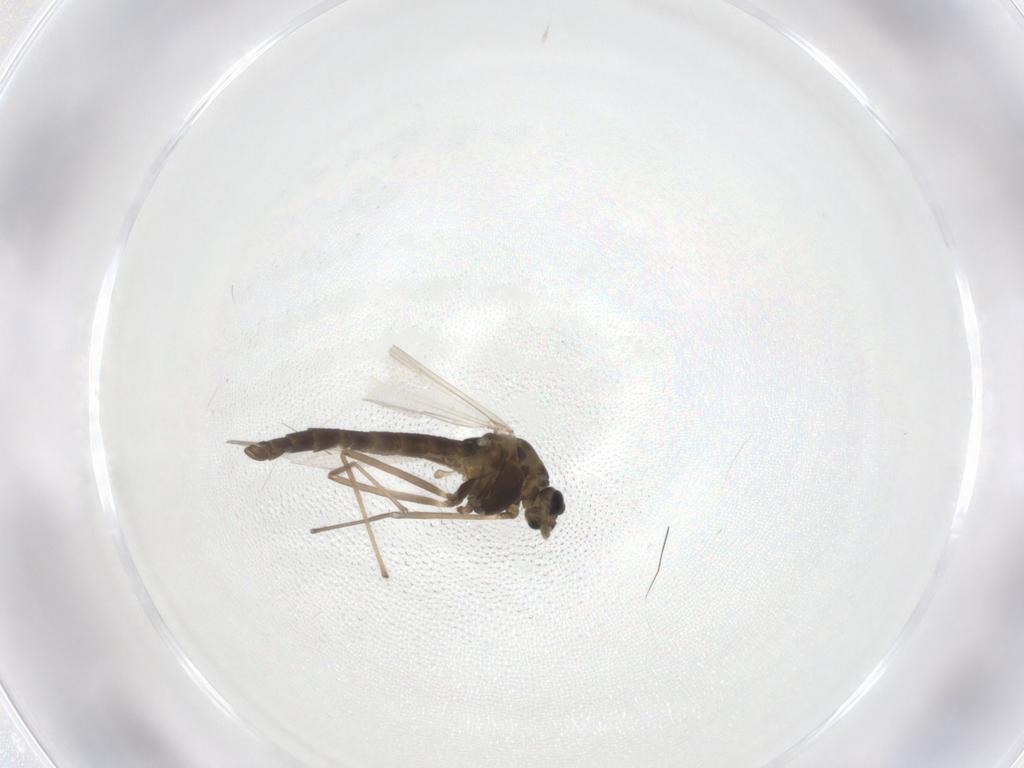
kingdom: Animalia
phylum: Arthropoda
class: Insecta
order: Diptera
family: Chironomidae
